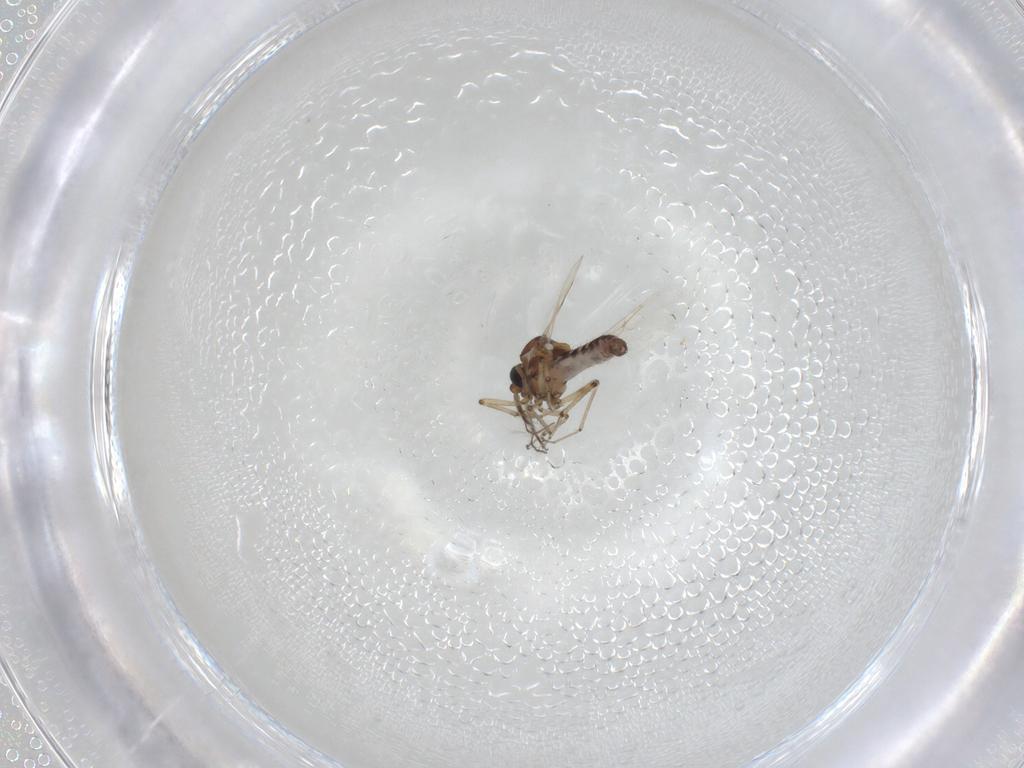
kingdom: Animalia
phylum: Arthropoda
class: Insecta
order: Diptera
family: Ceratopogonidae
